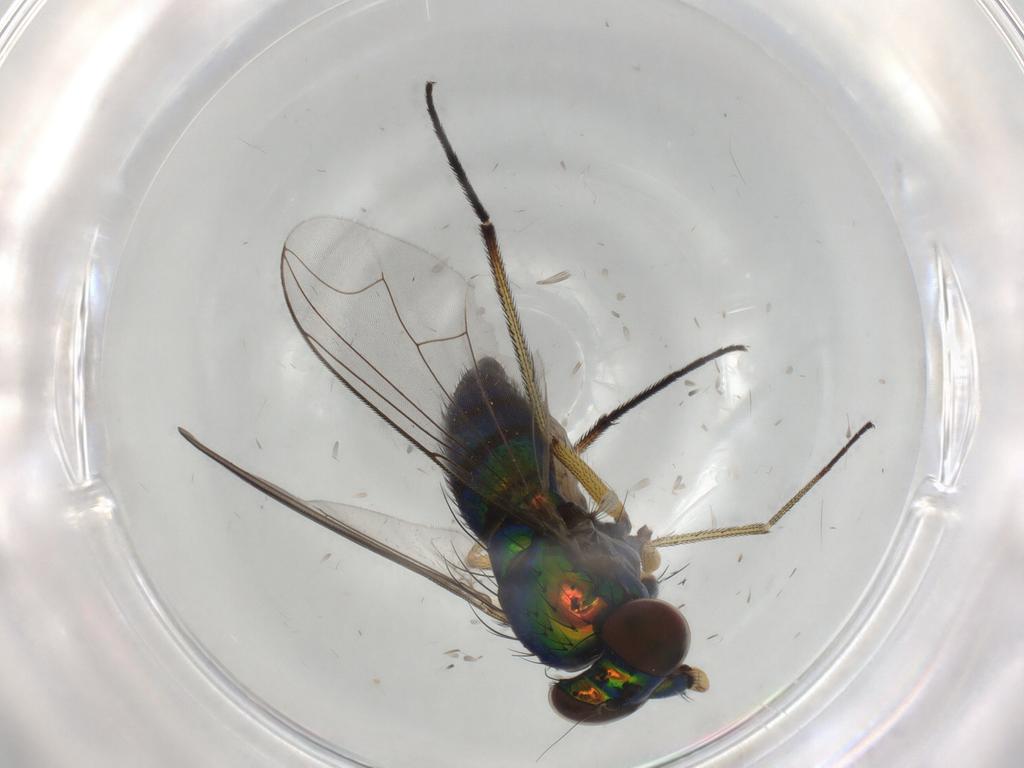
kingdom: Animalia
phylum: Arthropoda
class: Insecta
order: Diptera
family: Dolichopodidae
